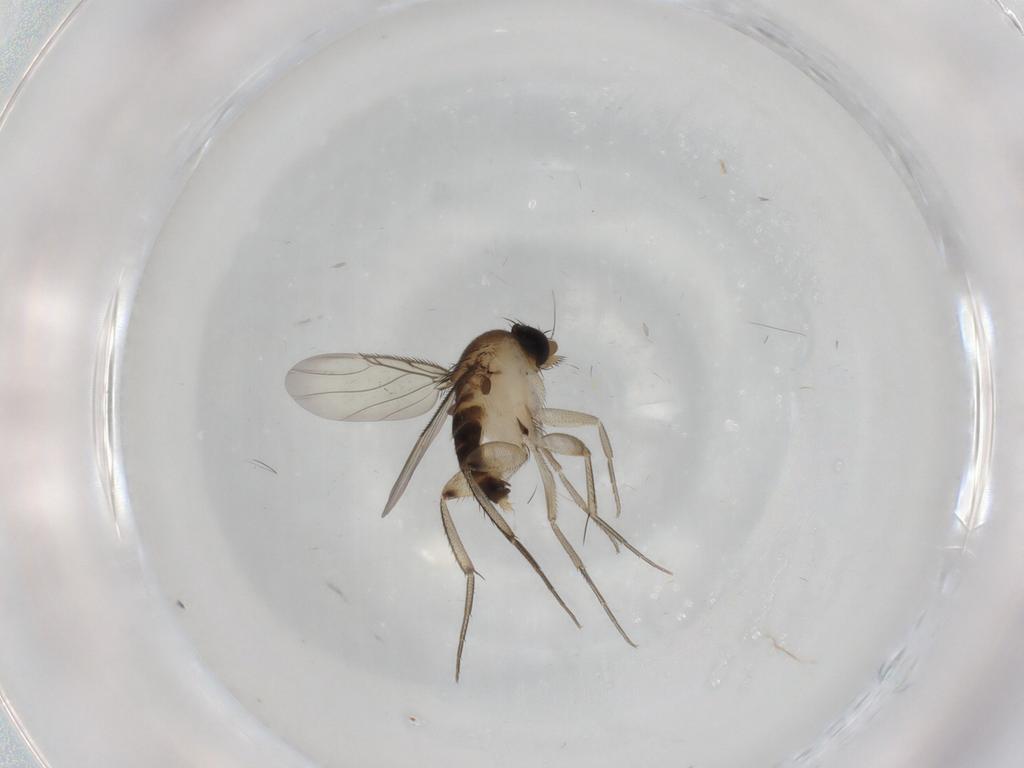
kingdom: Animalia
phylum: Arthropoda
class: Insecta
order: Diptera
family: Phoridae
